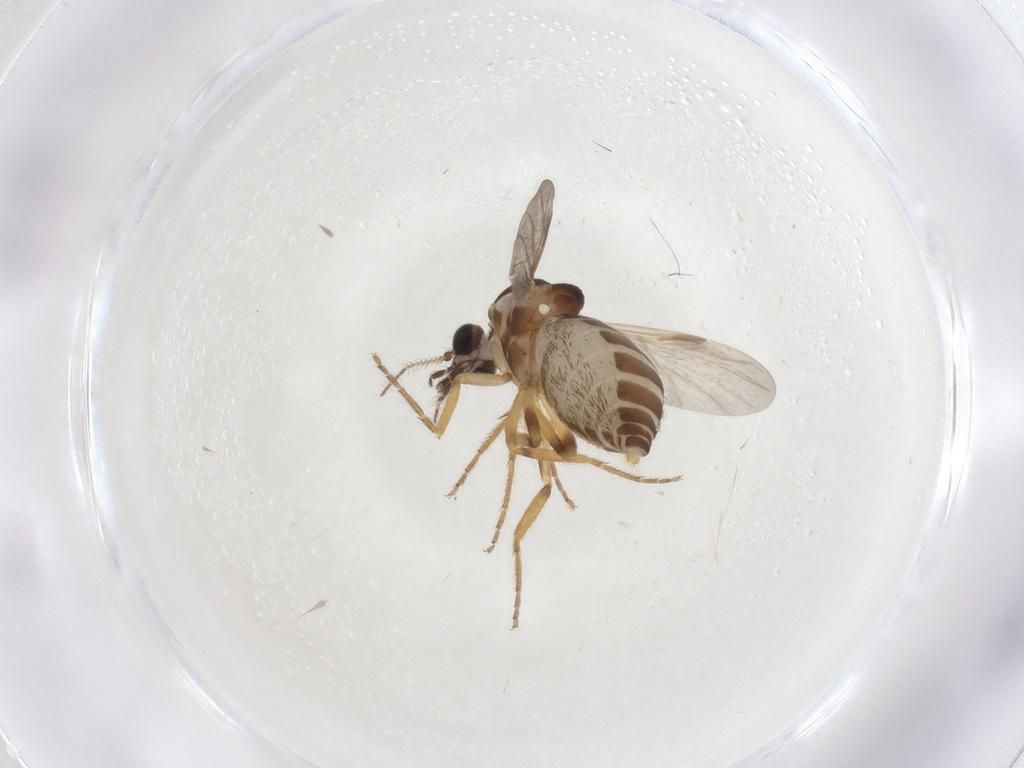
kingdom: Animalia
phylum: Arthropoda
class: Insecta
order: Diptera
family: Ceratopogonidae
